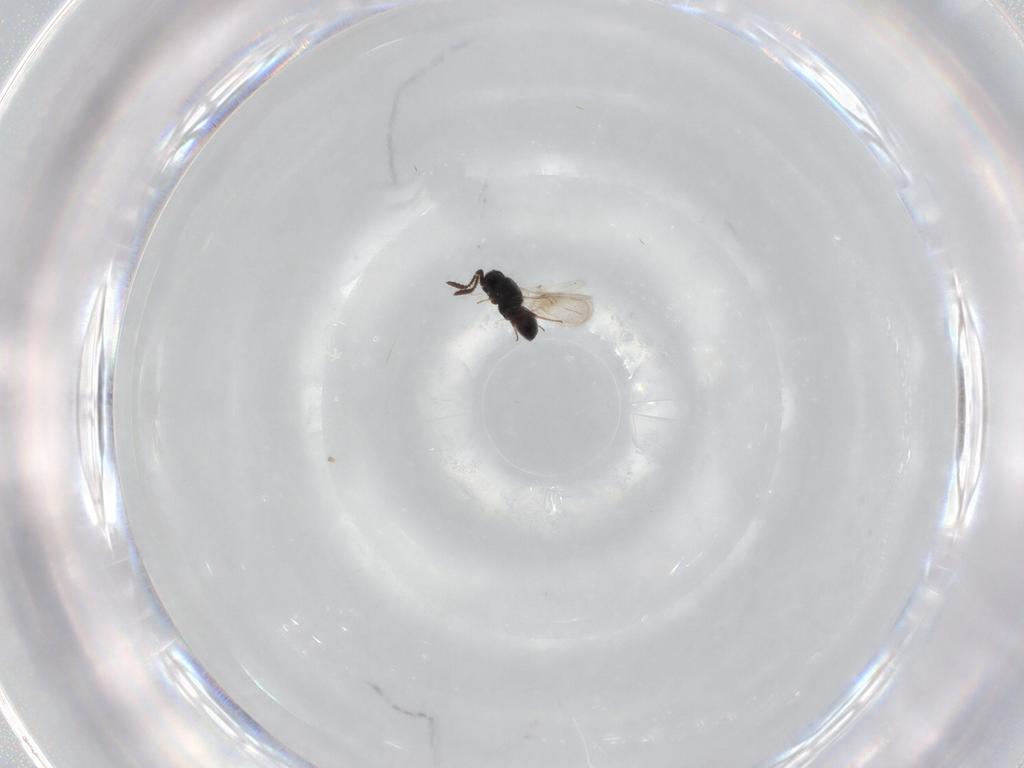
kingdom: Animalia
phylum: Arthropoda
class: Insecta
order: Hymenoptera
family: Scelionidae
